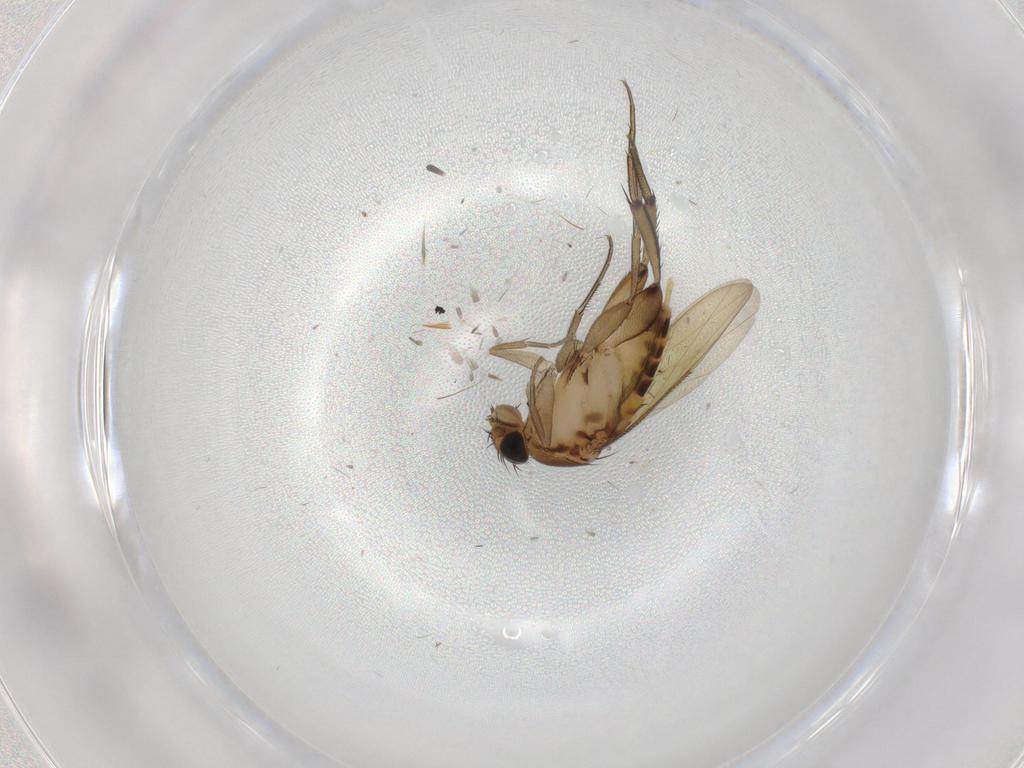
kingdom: Animalia
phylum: Arthropoda
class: Insecta
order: Diptera
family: Phoridae
